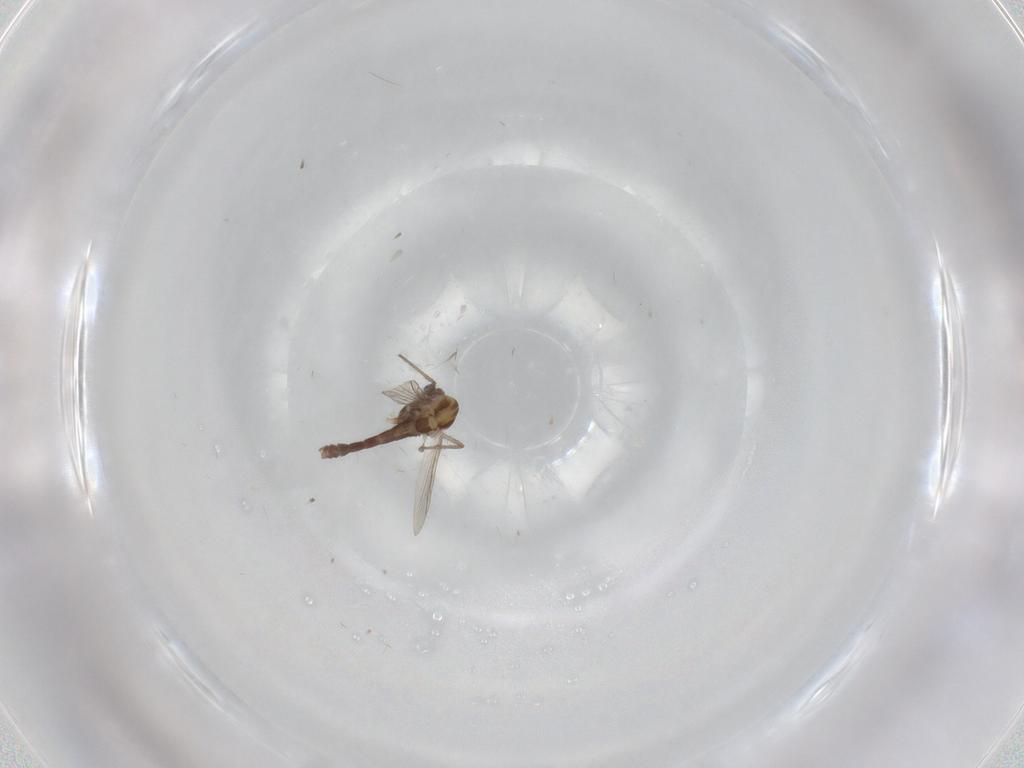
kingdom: Animalia
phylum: Arthropoda
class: Insecta
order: Diptera
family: Chironomidae
